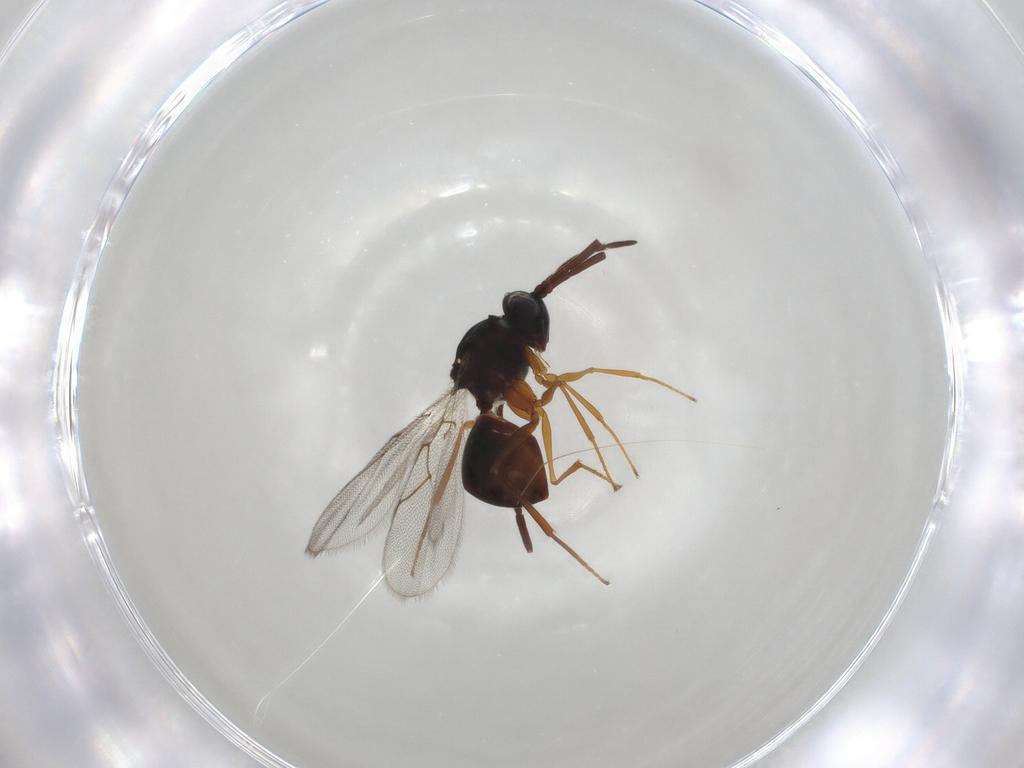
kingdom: Animalia
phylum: Arthropoda
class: Insecta
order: Hymenoptera
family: Figitidae
